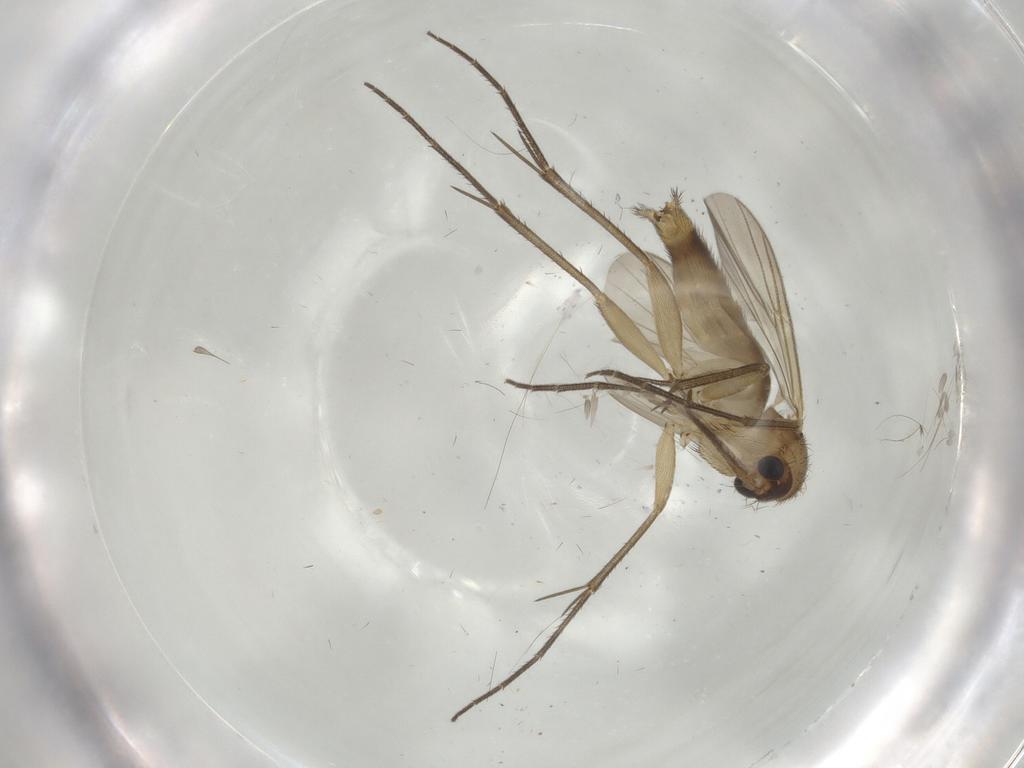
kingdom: Animalia
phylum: Arthropoda
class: Insecta
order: Diptera
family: Mycetophilidae
